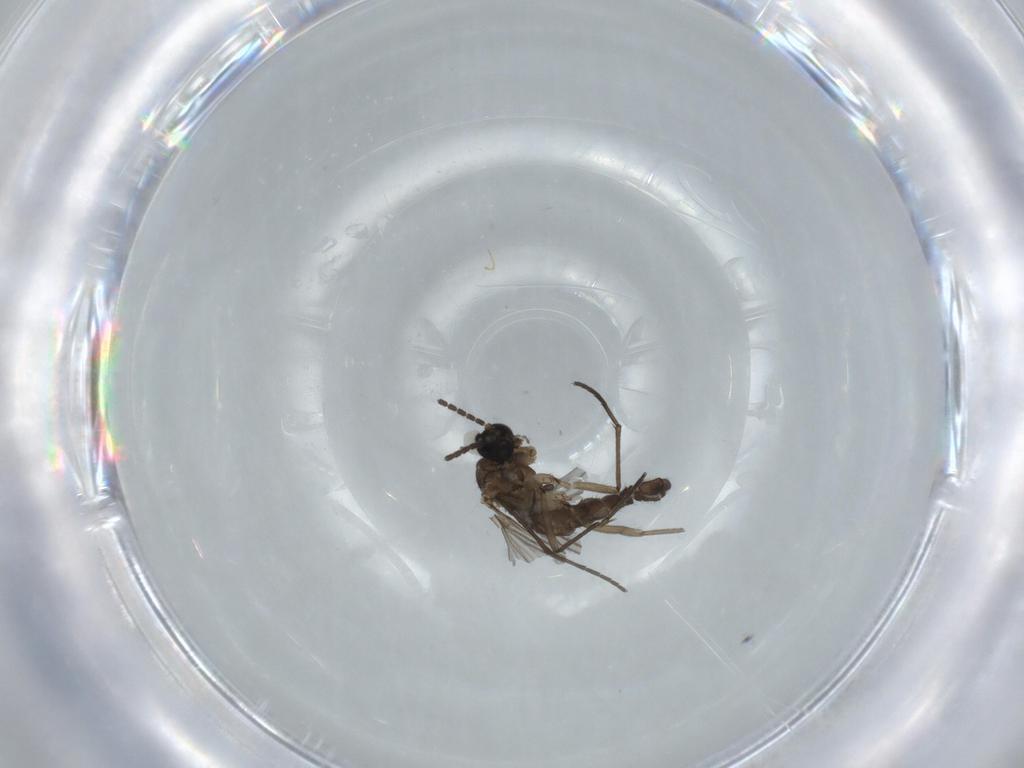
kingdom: Animalia
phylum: Arthropoda
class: Insecta
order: Diptera
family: Sciaridae
